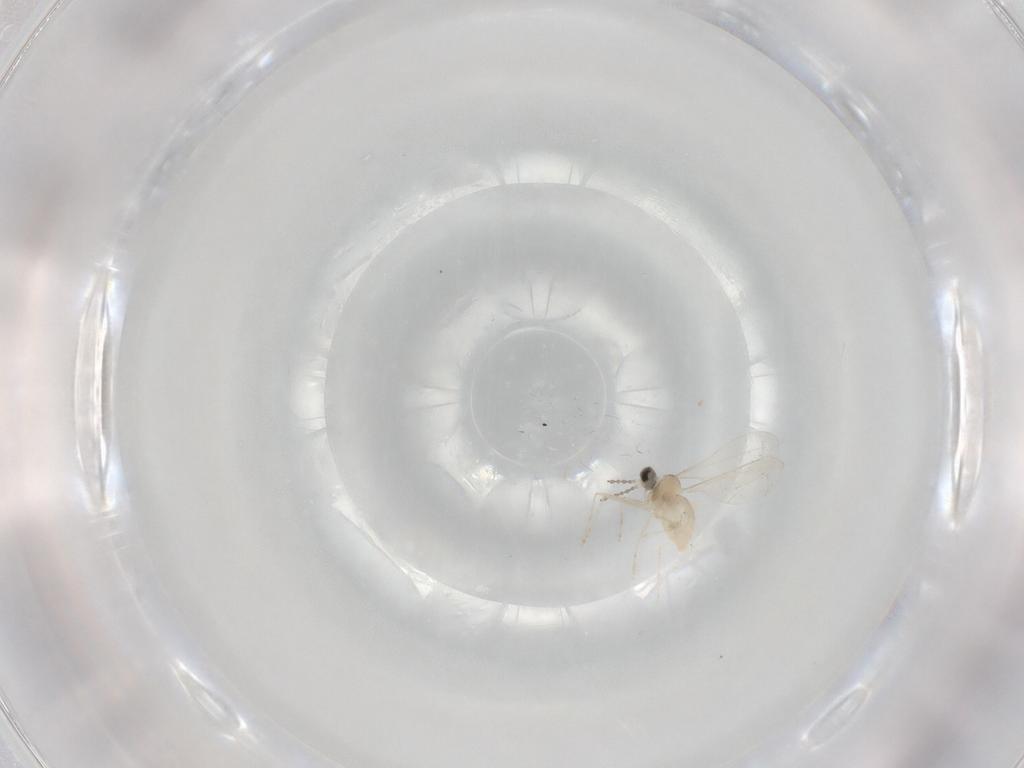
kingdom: Animalia
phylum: Arthropoda
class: Insecta
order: Diptera
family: Cecidomyiidae
